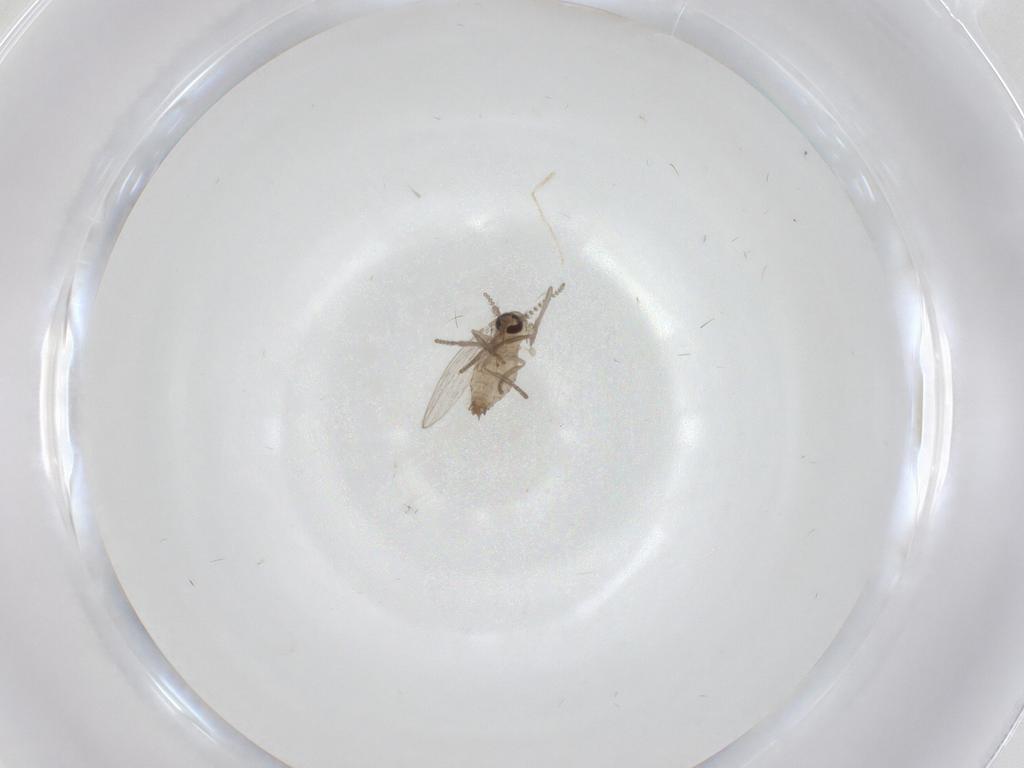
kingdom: Animalia
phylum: Arthropoda
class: Insecta
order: Diptera
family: Psychodidae
